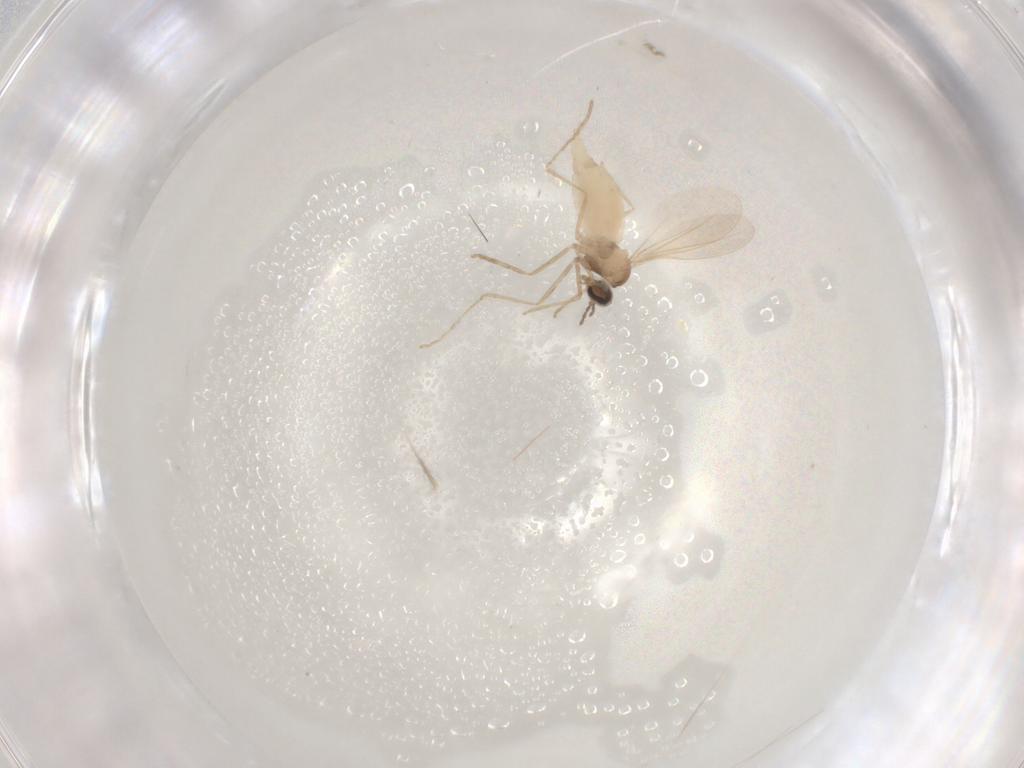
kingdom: Animalia
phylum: Arthropoda
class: Insecta
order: Diptera
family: Cecidomyiidae
